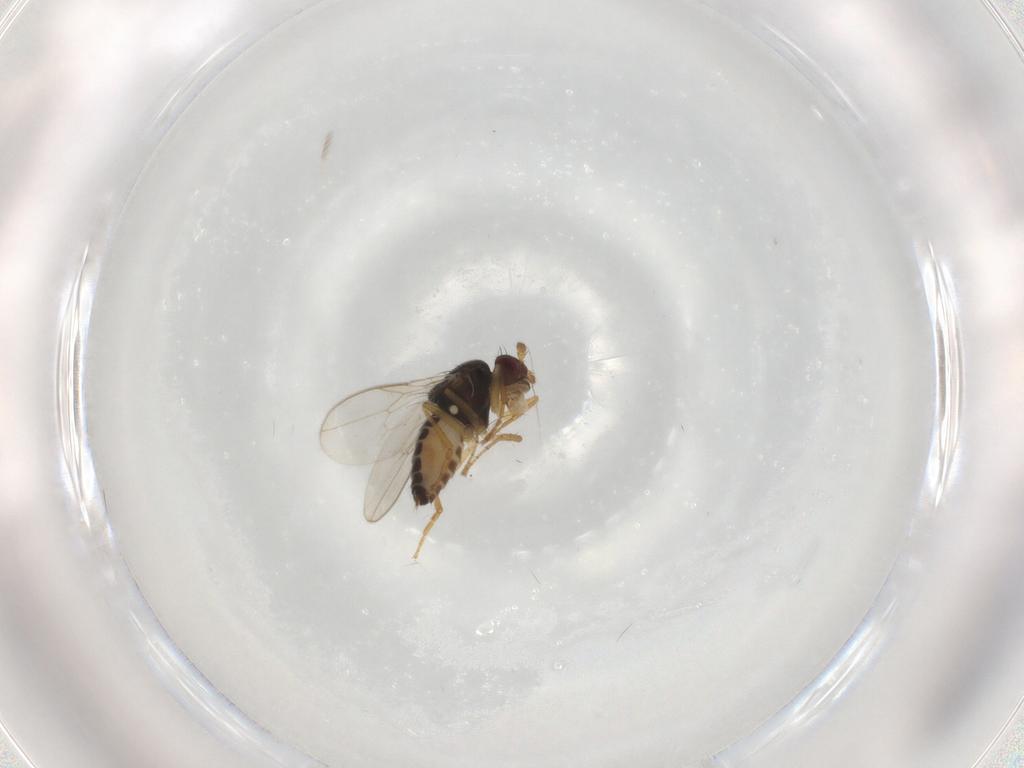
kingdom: Animalia
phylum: Arthropoda
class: Insecta
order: Diptera
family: Sphaeroceridae
